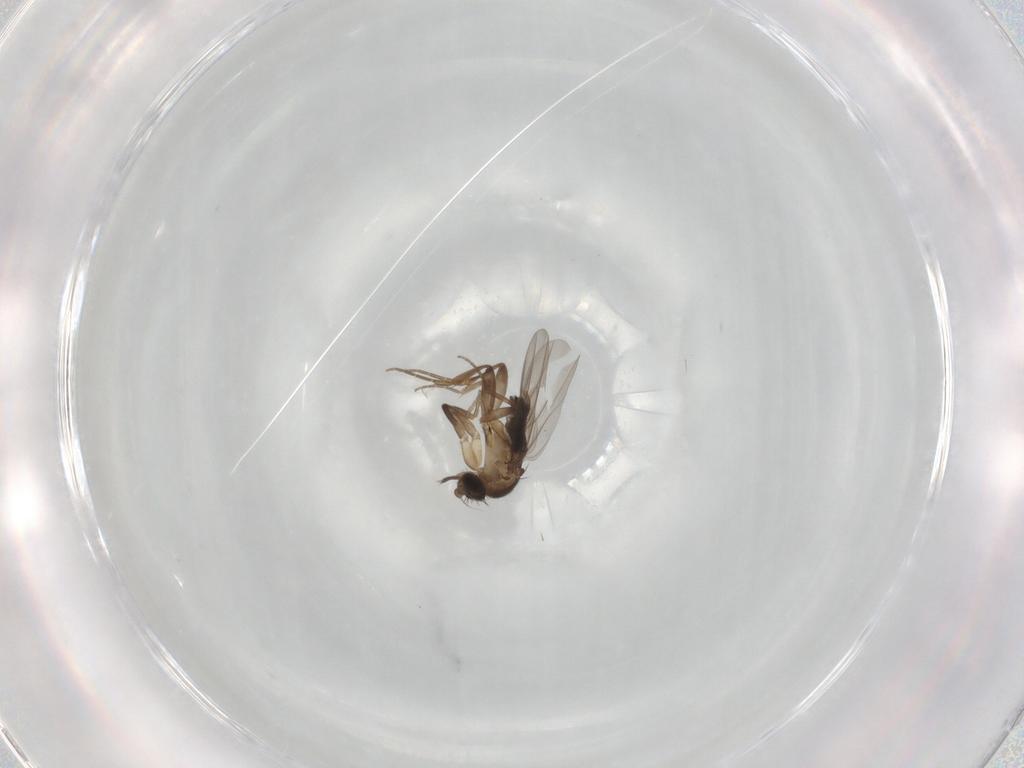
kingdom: Animalia
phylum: Arthropoda
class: Insecta
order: Diptera
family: Phoridae
